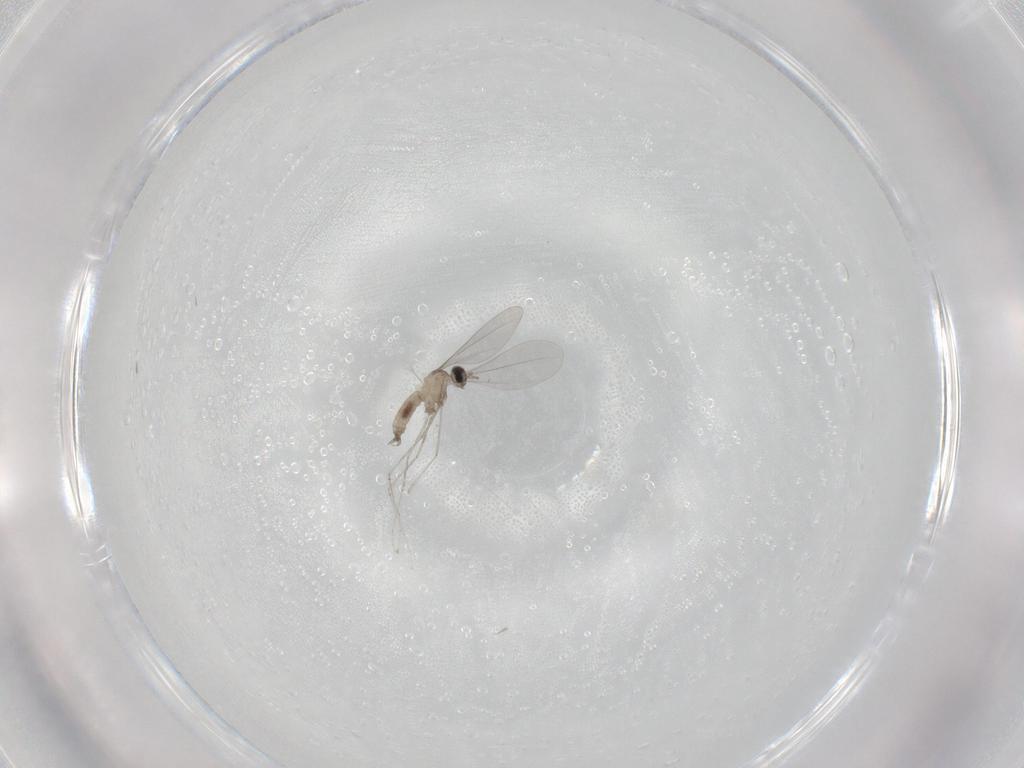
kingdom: Animalia
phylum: Arthropoda
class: Insecta
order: Diptera
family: Cecidomyiidae
